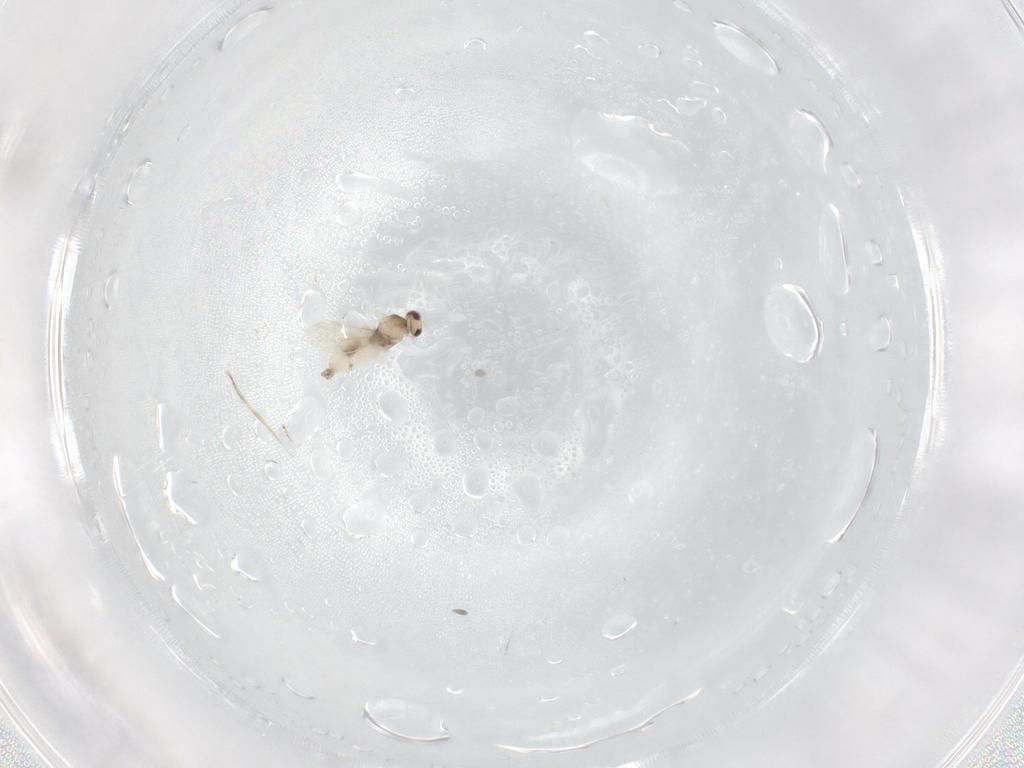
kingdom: Animalia
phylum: Arthropoda
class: Insecta
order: Diptera
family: Cecidomyiidae
